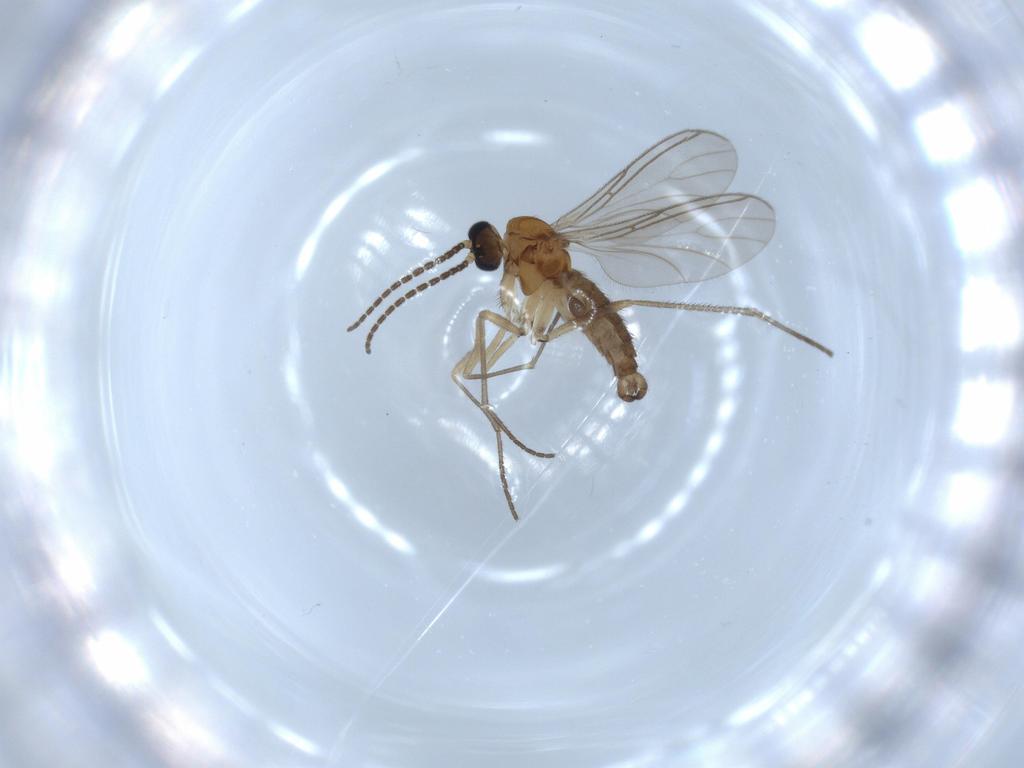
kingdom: Animalia
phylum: Arthropoda
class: Insecta
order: Diptera
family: Sciaridae
